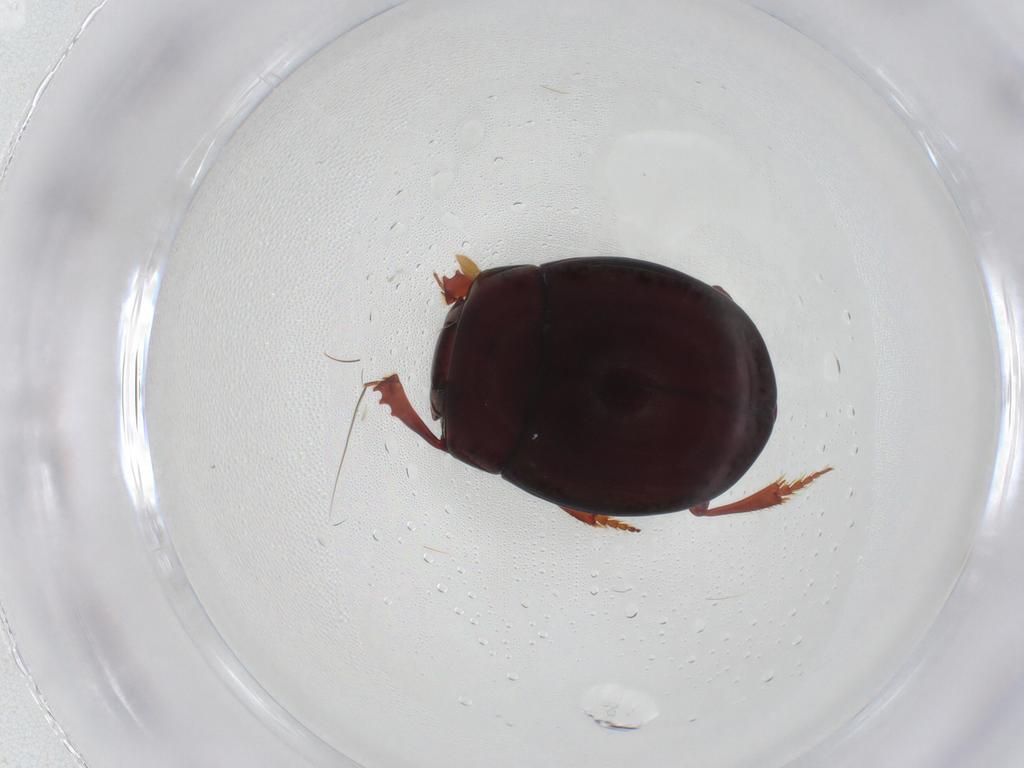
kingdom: Animalia
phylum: Arthropoda
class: Insecta
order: Coleoptera
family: Scarabaeidae
